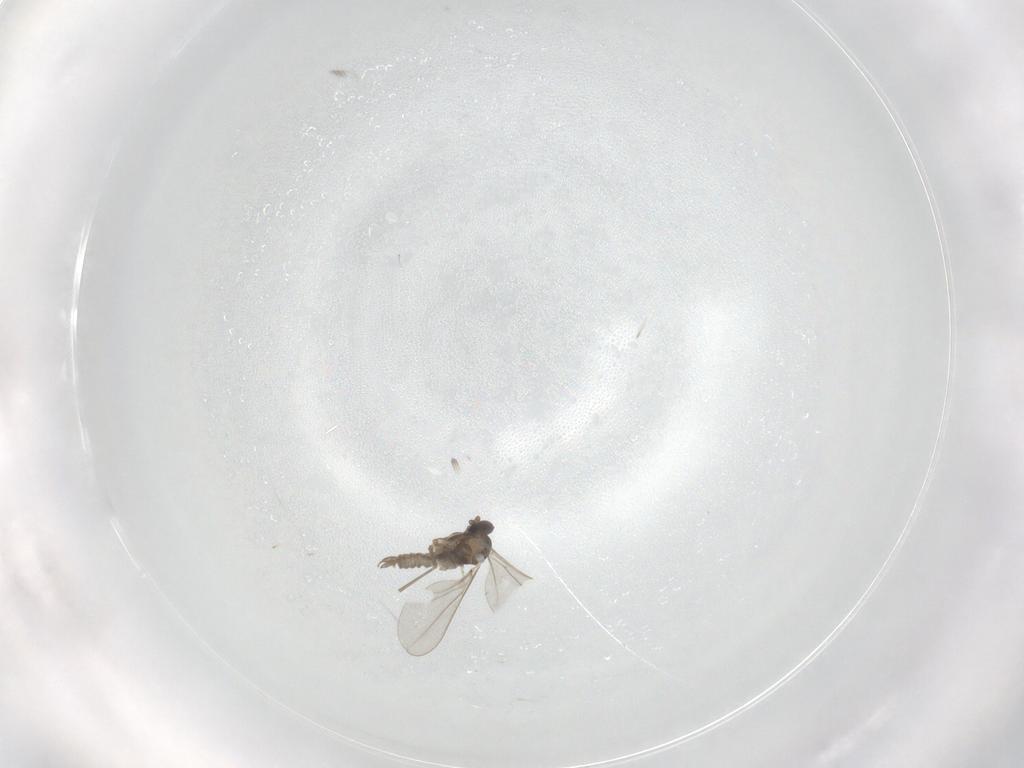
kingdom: Animalia
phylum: Arthropoda
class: Insecta
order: Diptera
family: Cecidomyiidae
